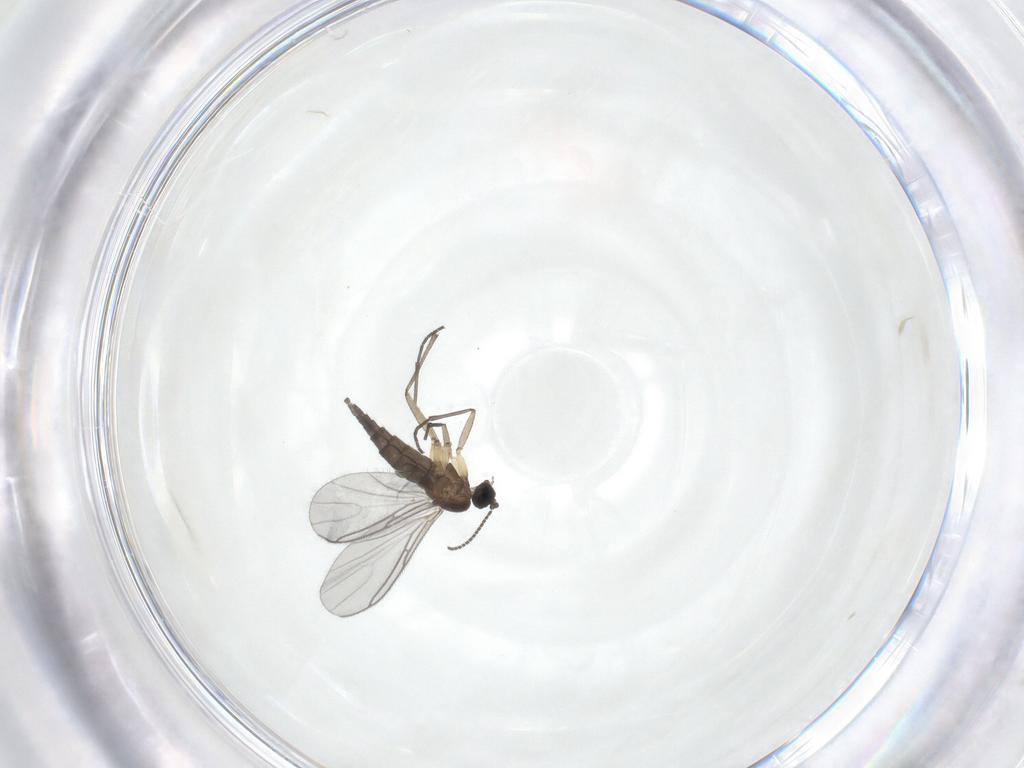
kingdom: Animalia
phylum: Arthropoda
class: Insecta
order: Diptera
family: Sciaridae
